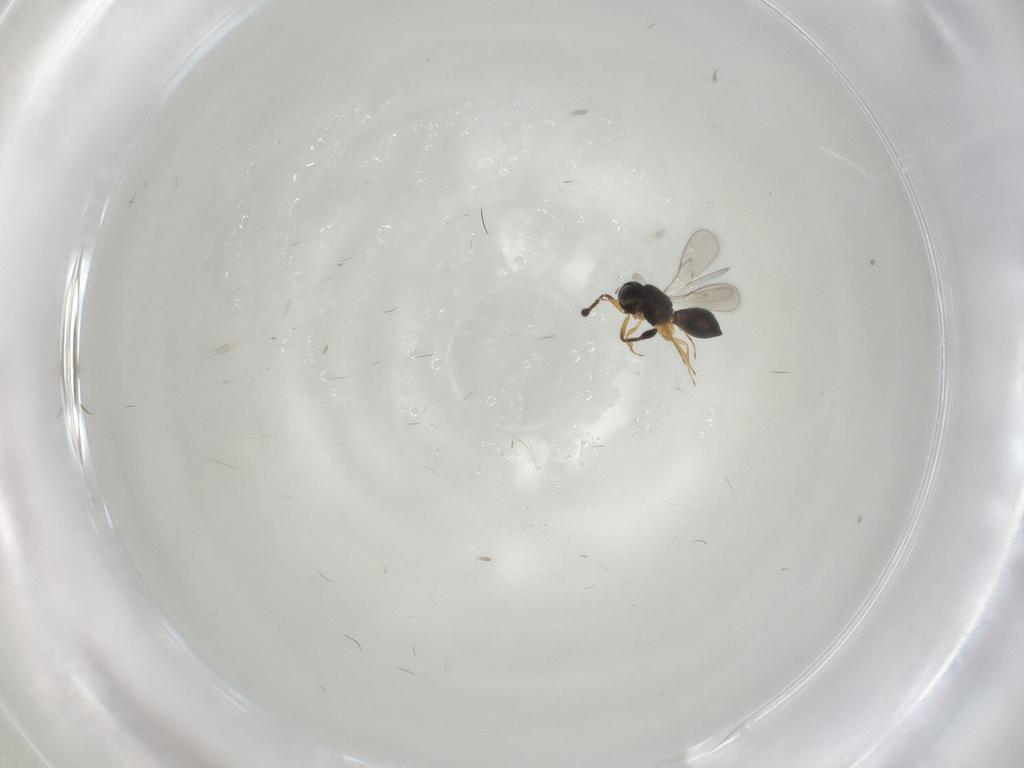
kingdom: Animalia
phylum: Arthropoda
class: Insecta
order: Hymenoptera
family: Scelionidae
